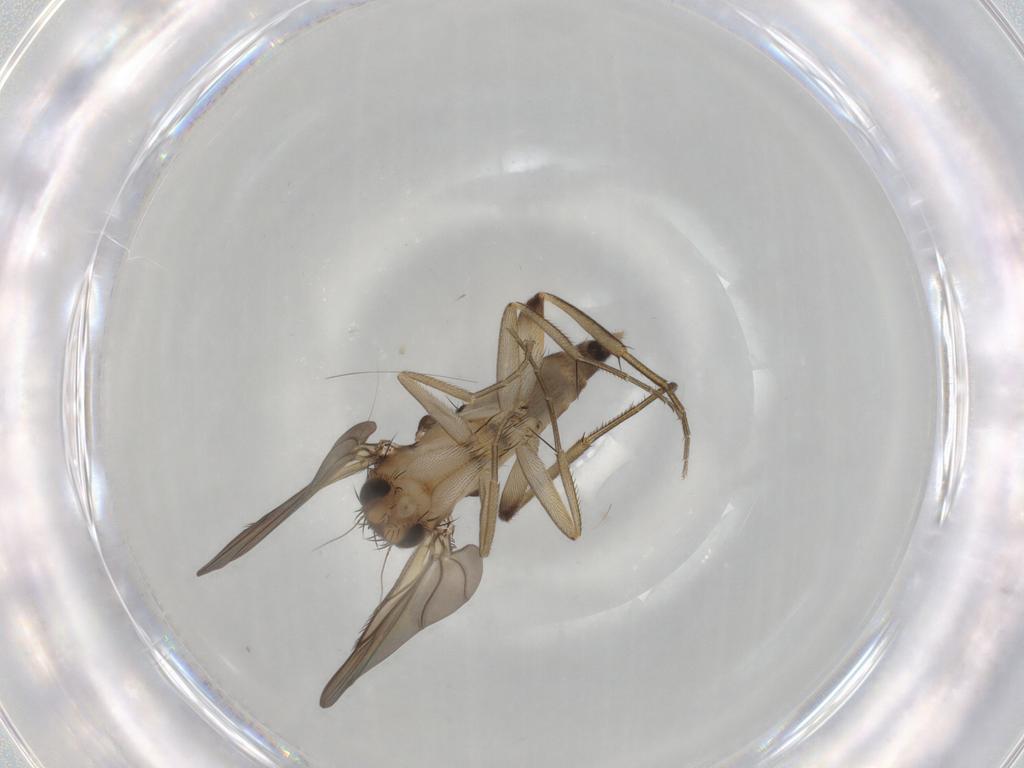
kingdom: Animalia
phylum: Arthropoda
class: Insecta
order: Diptera
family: Phoridae
